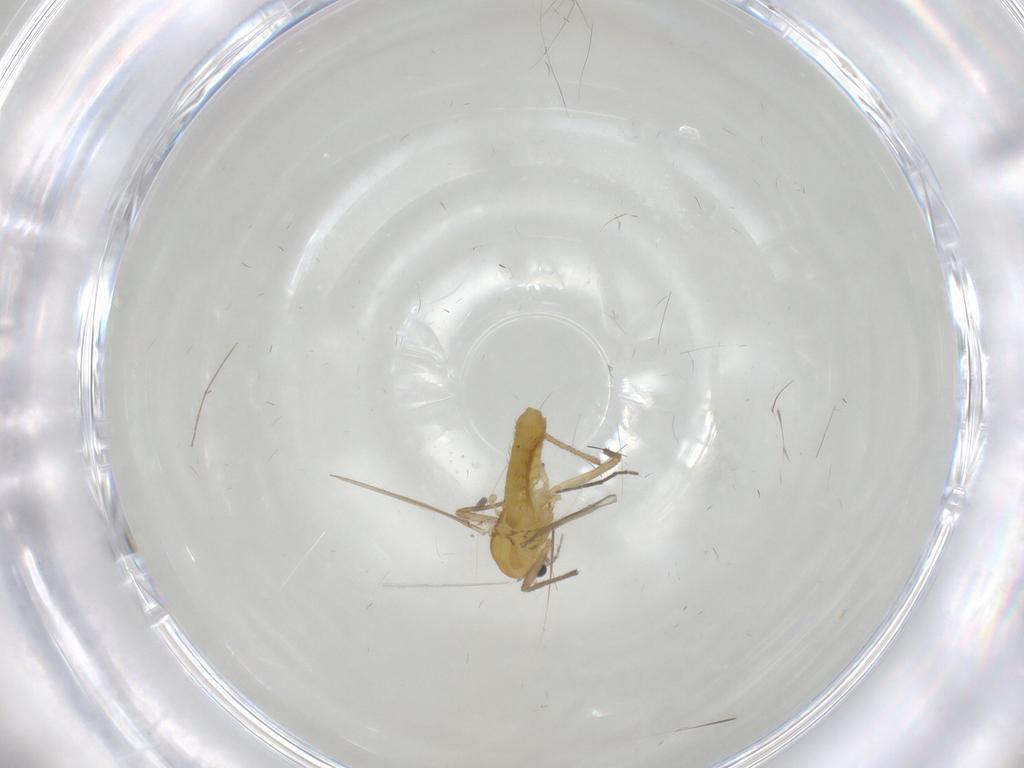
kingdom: Animalia
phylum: Arthropoda
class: Insecta
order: Diptera
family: Chironomidae
